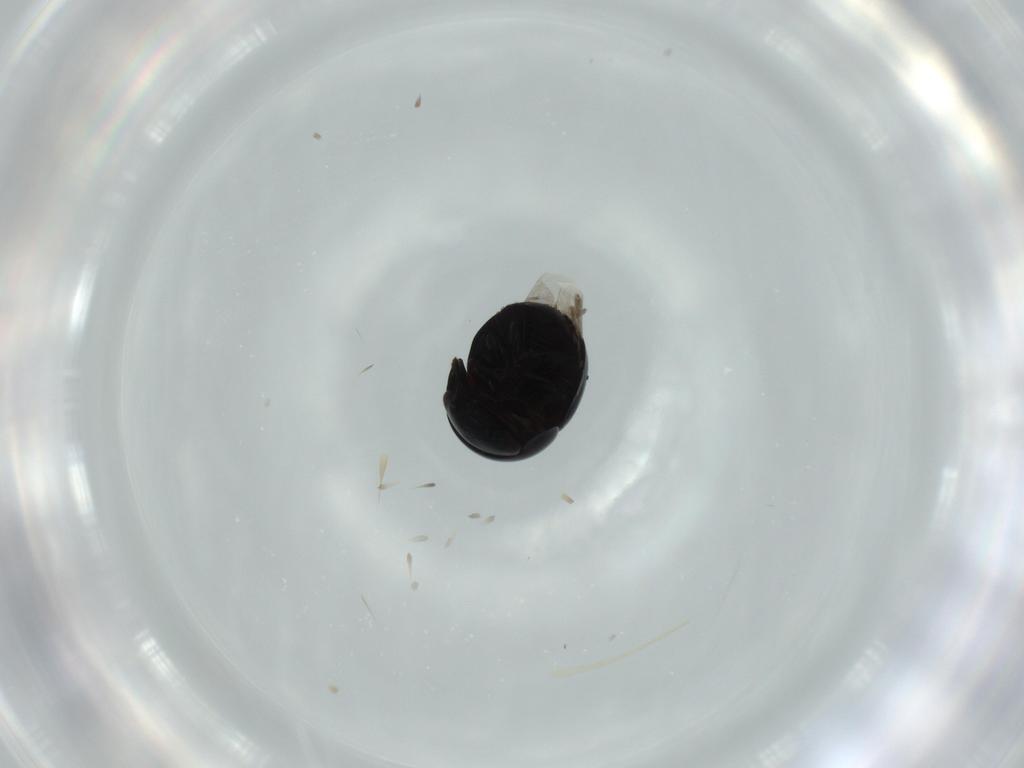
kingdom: Animalia
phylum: Arthropoda
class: Insecta
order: Coleoptera
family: Cybocephalidae
